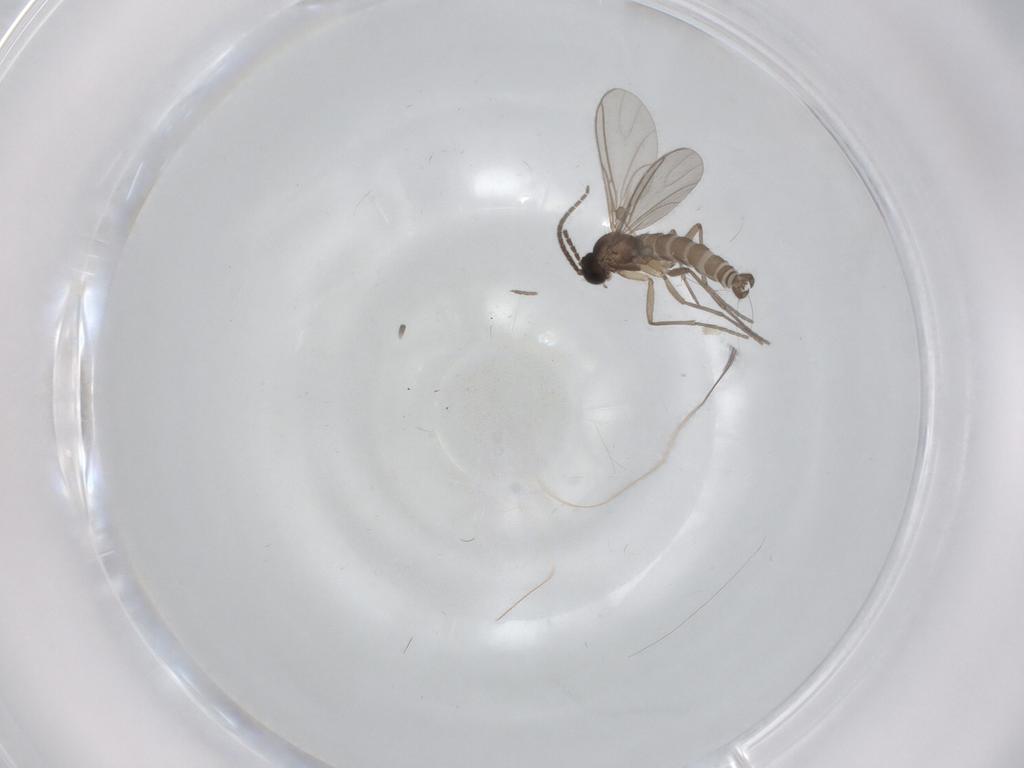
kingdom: Animalia
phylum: Arthropoda
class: Insecta
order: Diptera
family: Sciaridae
